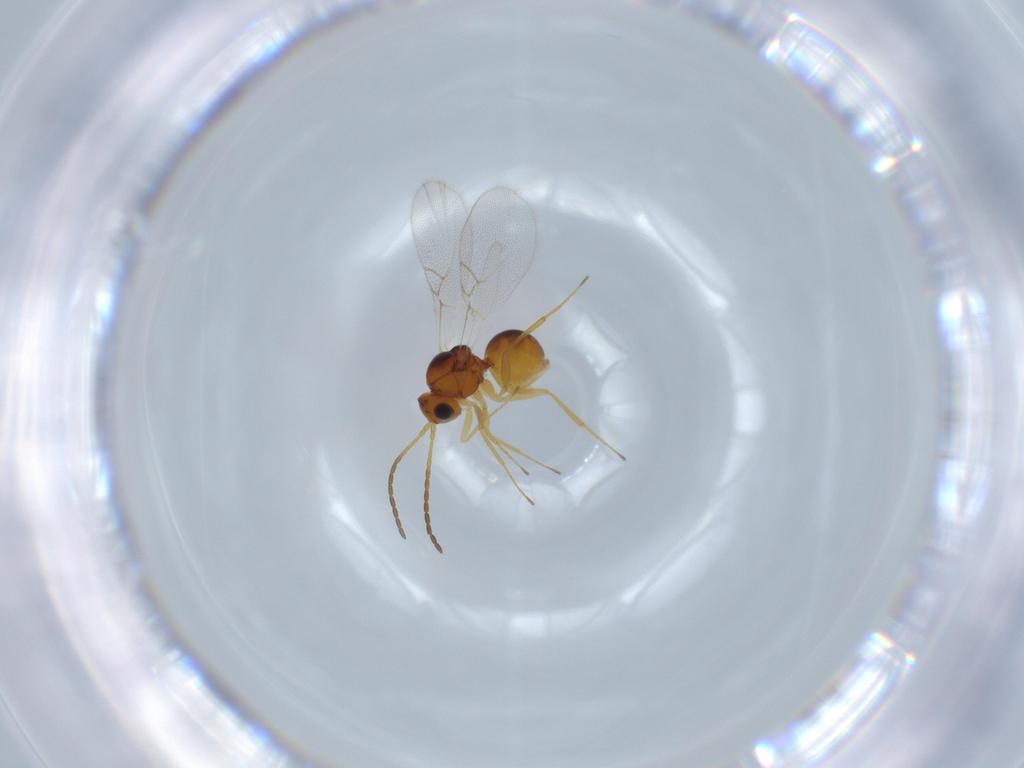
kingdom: Animalia
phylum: Arthropoda
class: Insecta
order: Hymenoptera
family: Figitidae
